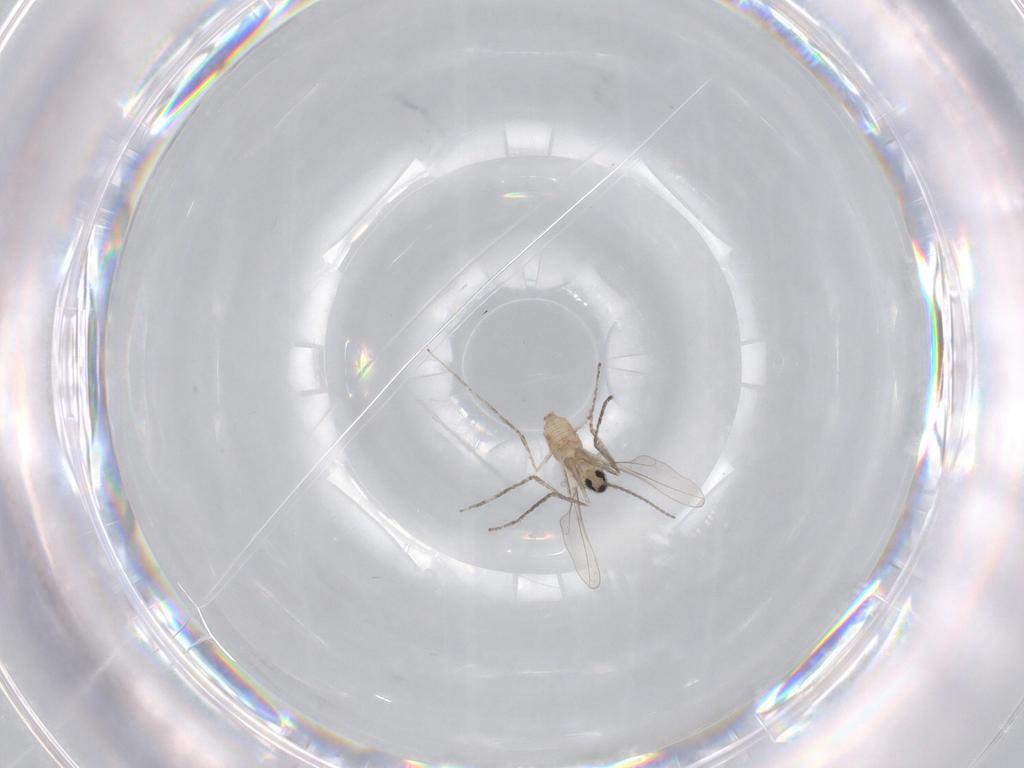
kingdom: Animalia
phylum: Arthropoda
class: Insecta
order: Diptera
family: Cecidomyiidae
